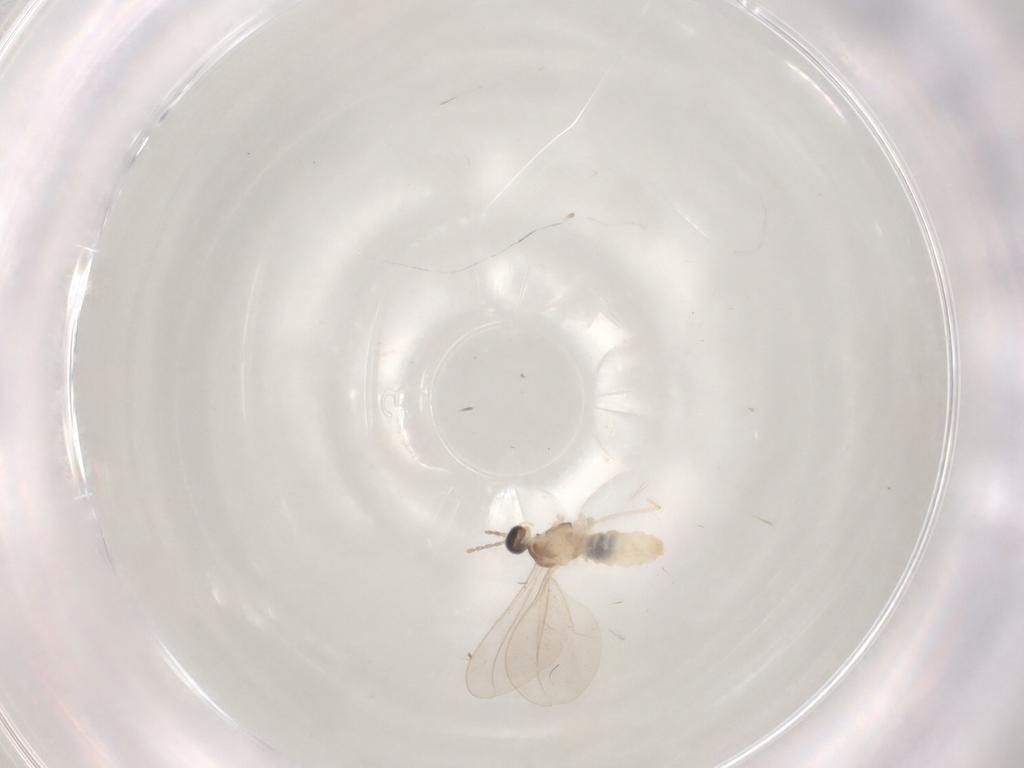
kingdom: Animalia
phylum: Arthropoda
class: Insecta
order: Diptera
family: Cecidomyiidae
